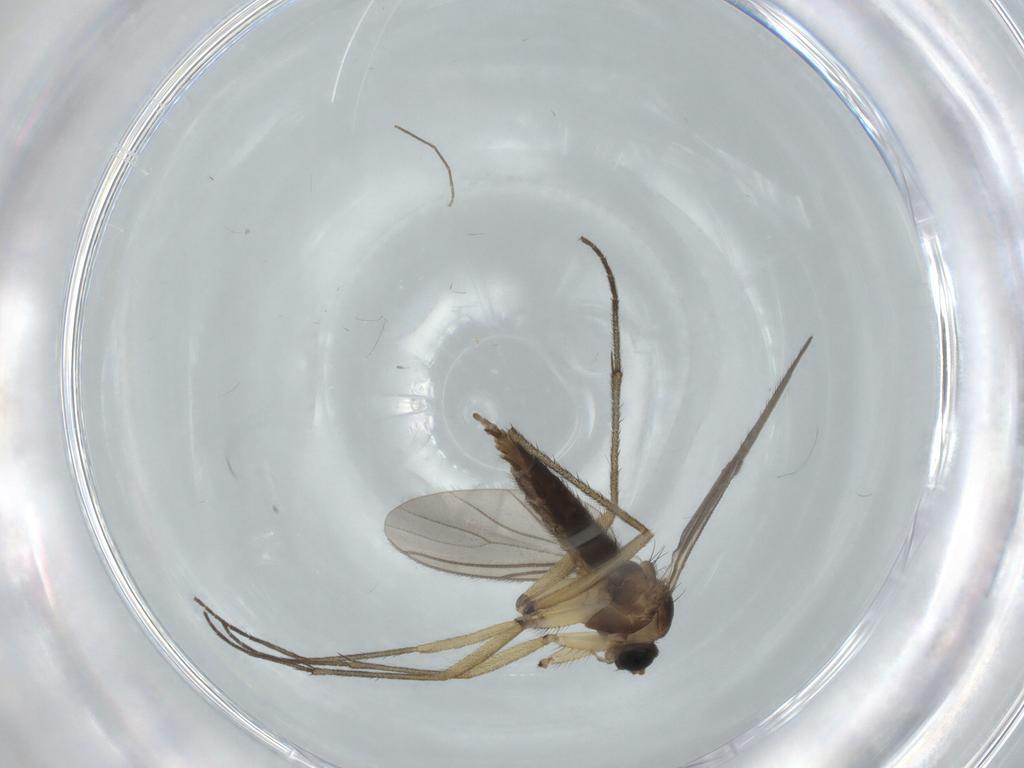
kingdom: Animalia
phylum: Arthropoda
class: Insecta
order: Diptera
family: Sciaridae
